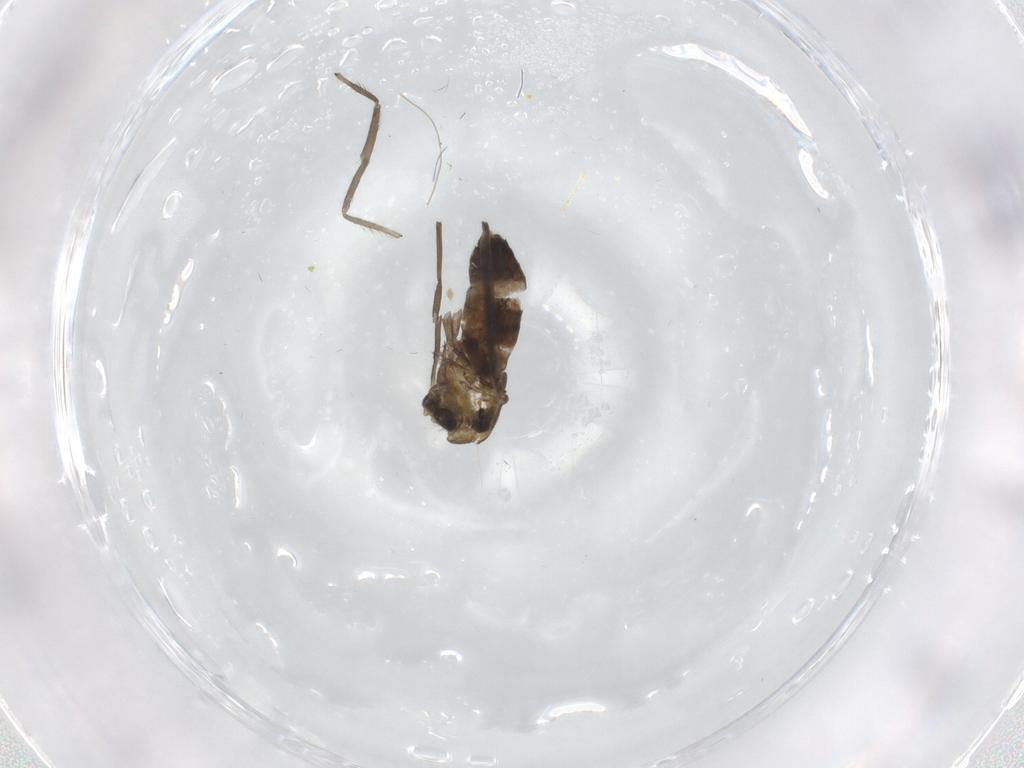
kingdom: Animalia
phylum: Arthropoda
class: Insecta
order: Diptera
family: Chironomidae
